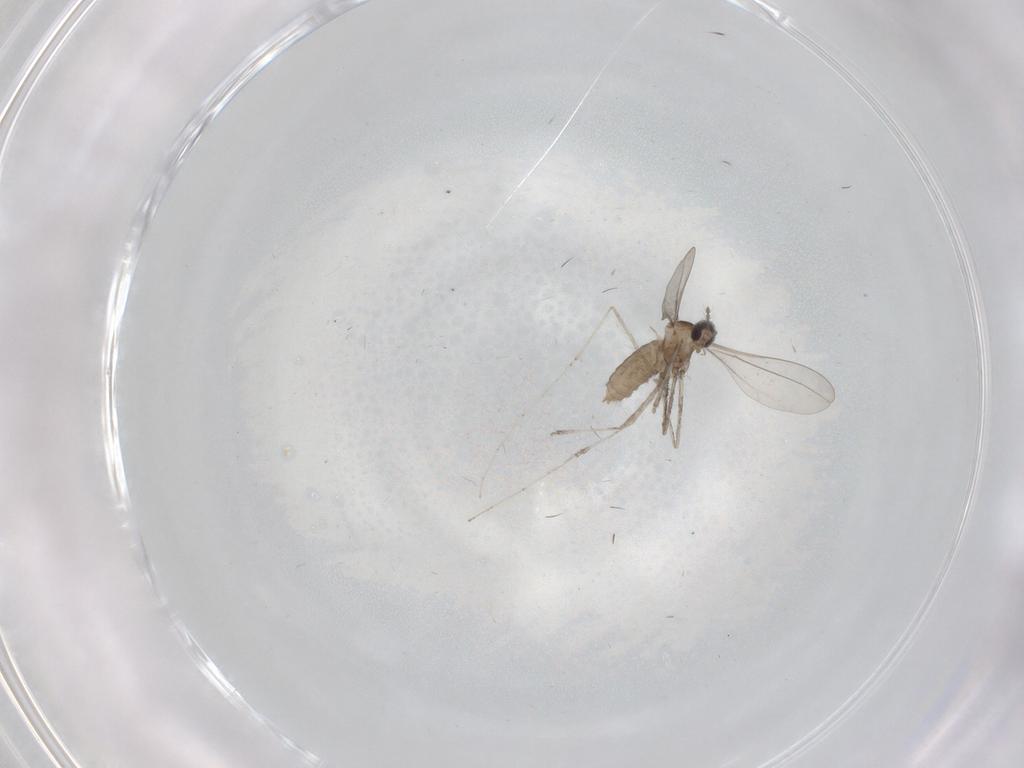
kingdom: Animalia
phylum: Arthropoda
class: Insecta
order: Diptera
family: Cecidomyiidae
